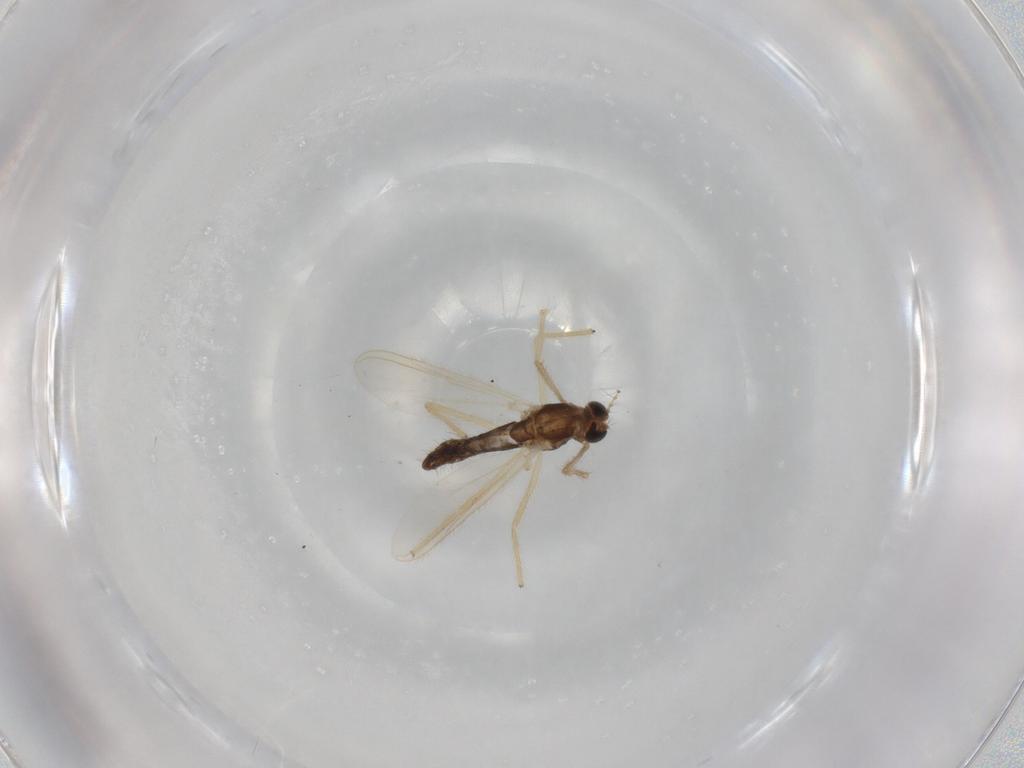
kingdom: Animalia
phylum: Arthropoda
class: Insecta
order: Diptera
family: Chironomidae
